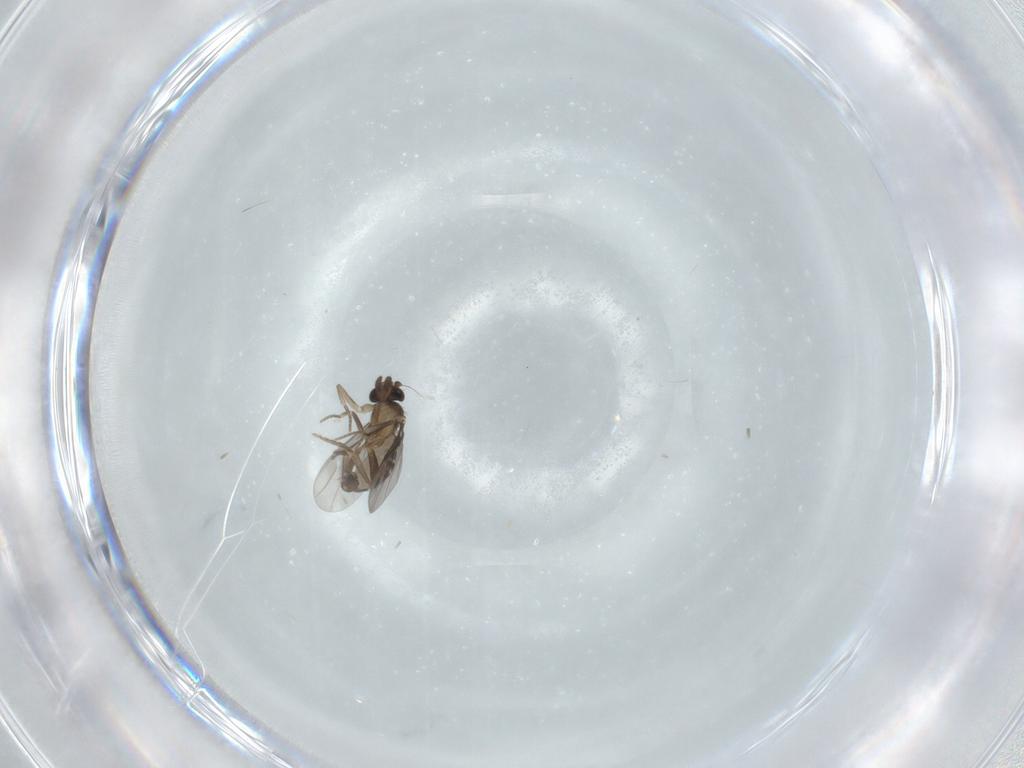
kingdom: Animalia
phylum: Arthropoda
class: Insecta
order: Diptera
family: Phoridae
